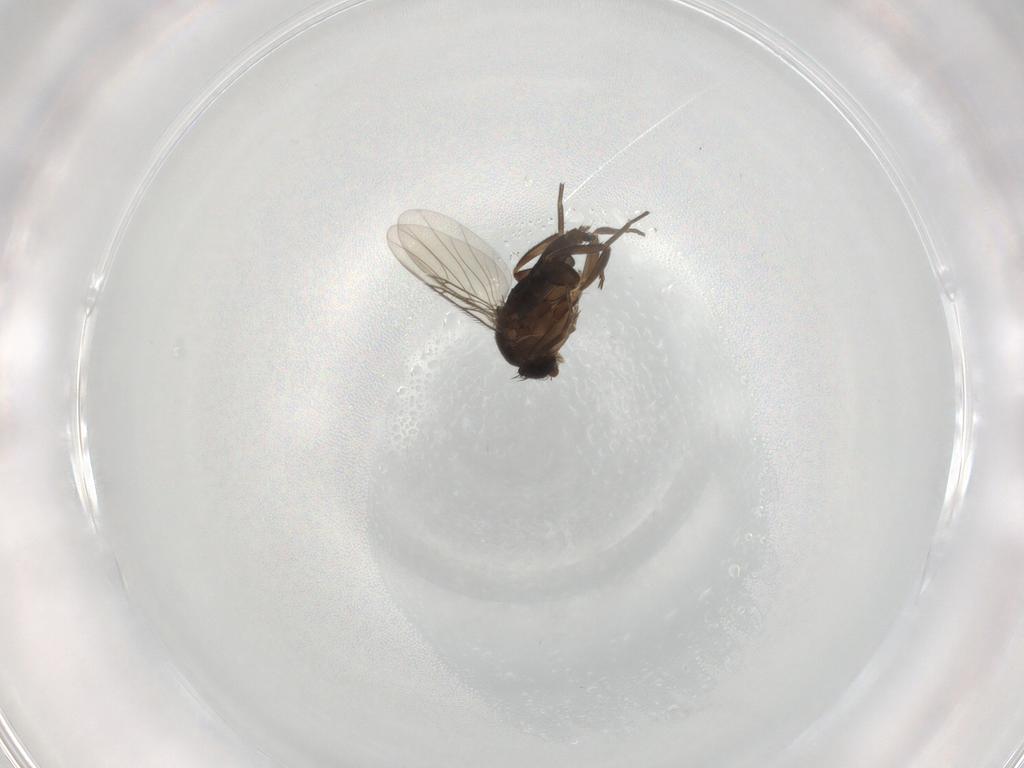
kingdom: Animalia
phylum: Arthropoda
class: Insecta
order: Diptera
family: Phoridae
